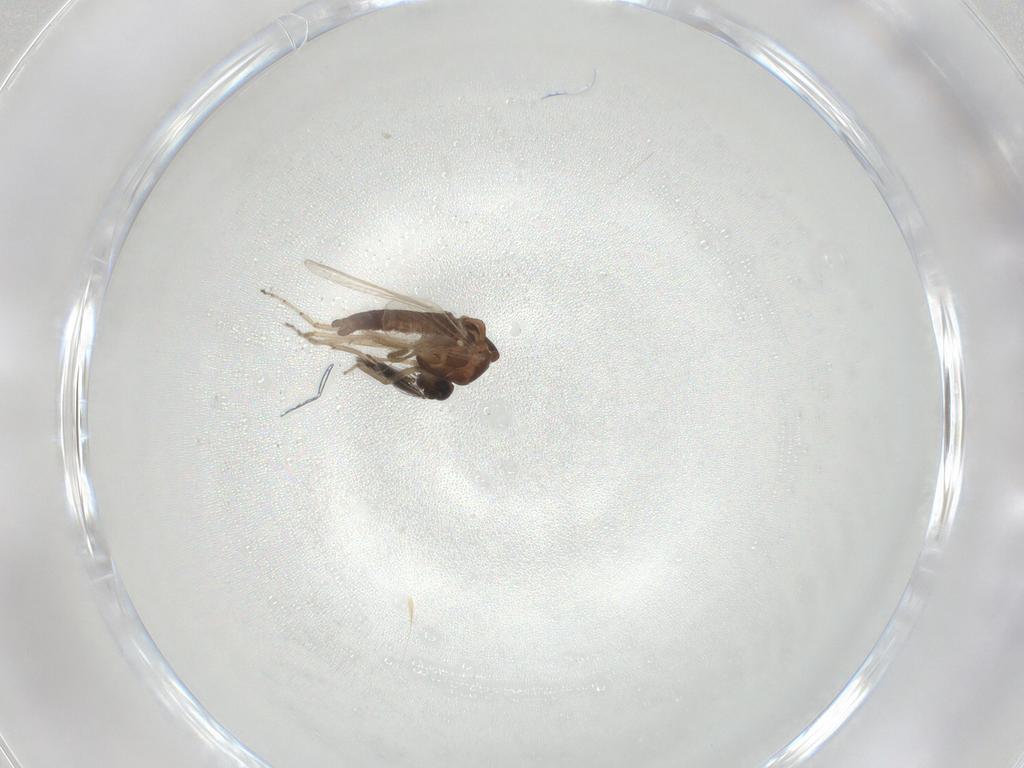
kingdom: Animalia
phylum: Arthropoda
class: Insecta
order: Diptera
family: Ceratopogonidae
